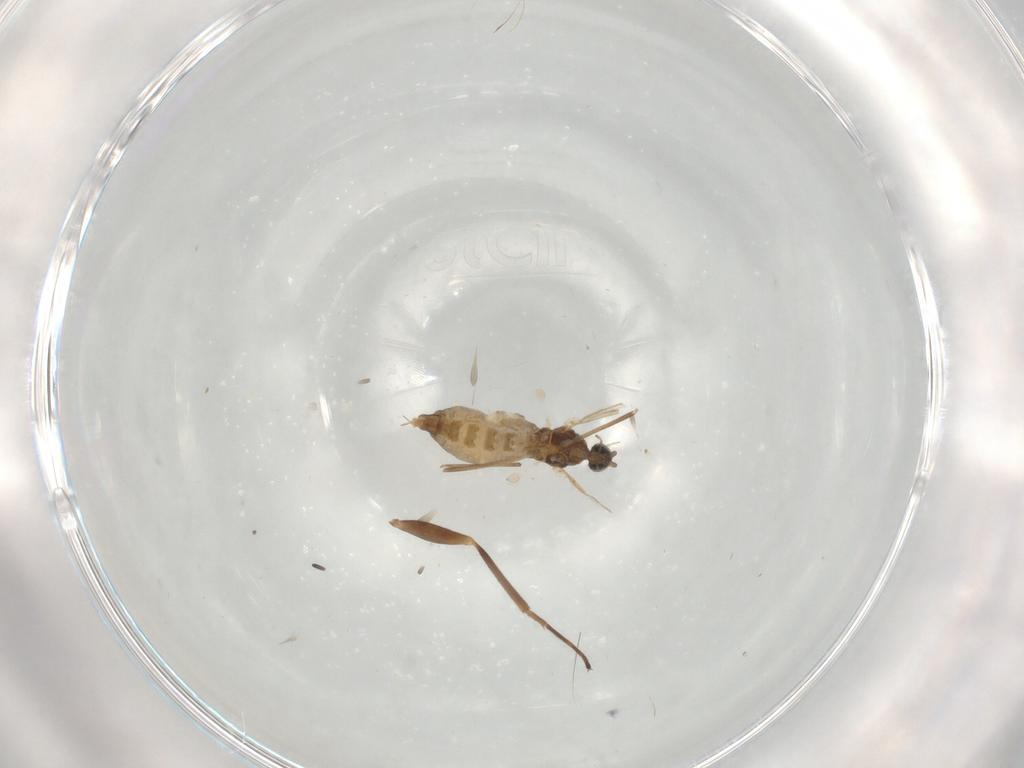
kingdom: Animalia
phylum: Arthropoda
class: Insecta
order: Diptera
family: Cecidomyiidae
